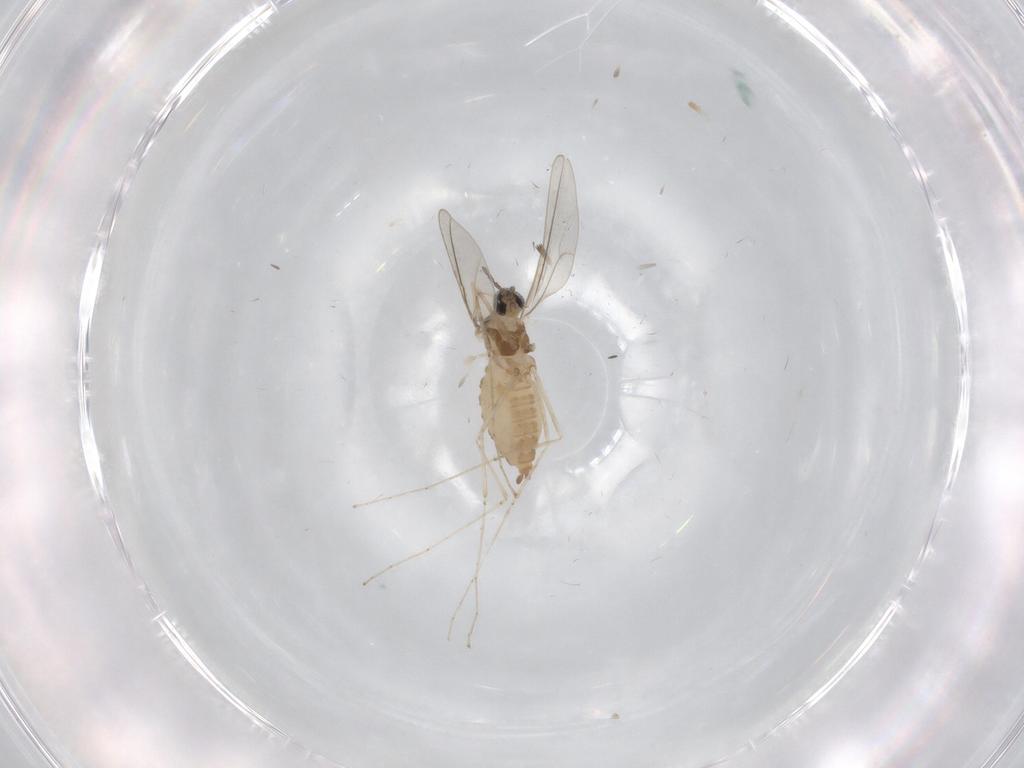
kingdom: Animalia
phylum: Arthropoda
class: Insecta
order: Diptera
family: Cecidomyiidae
